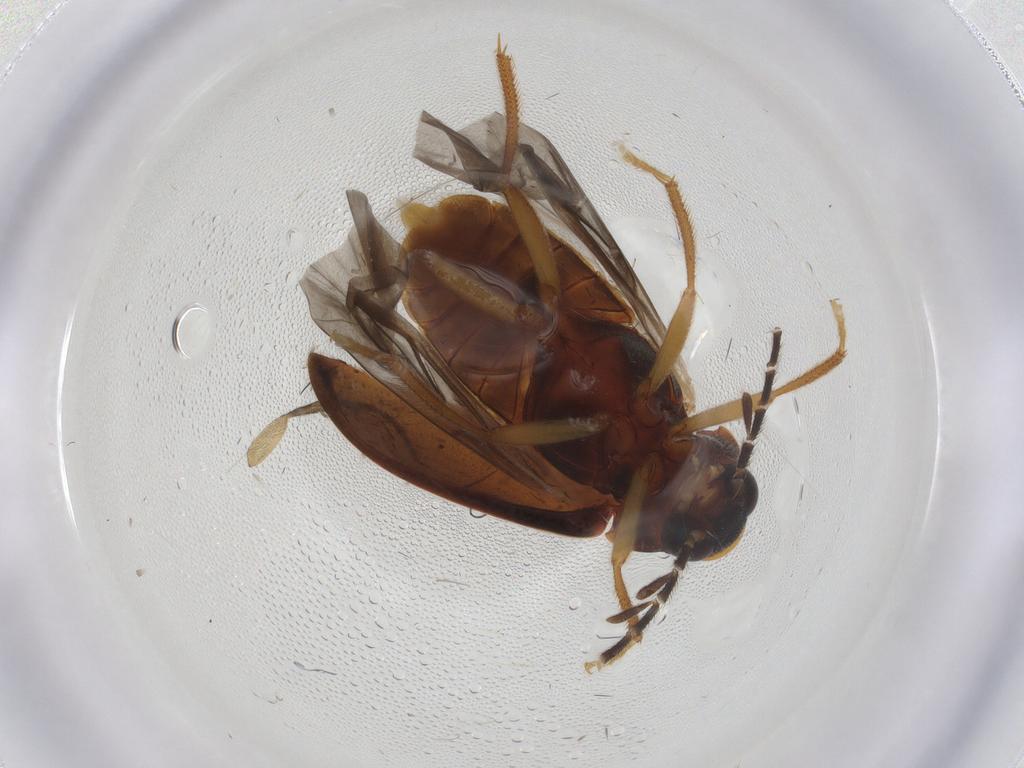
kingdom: Animalia
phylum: Arthropoda
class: Insecta
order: Coleoptera
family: Ptilodactylidae
